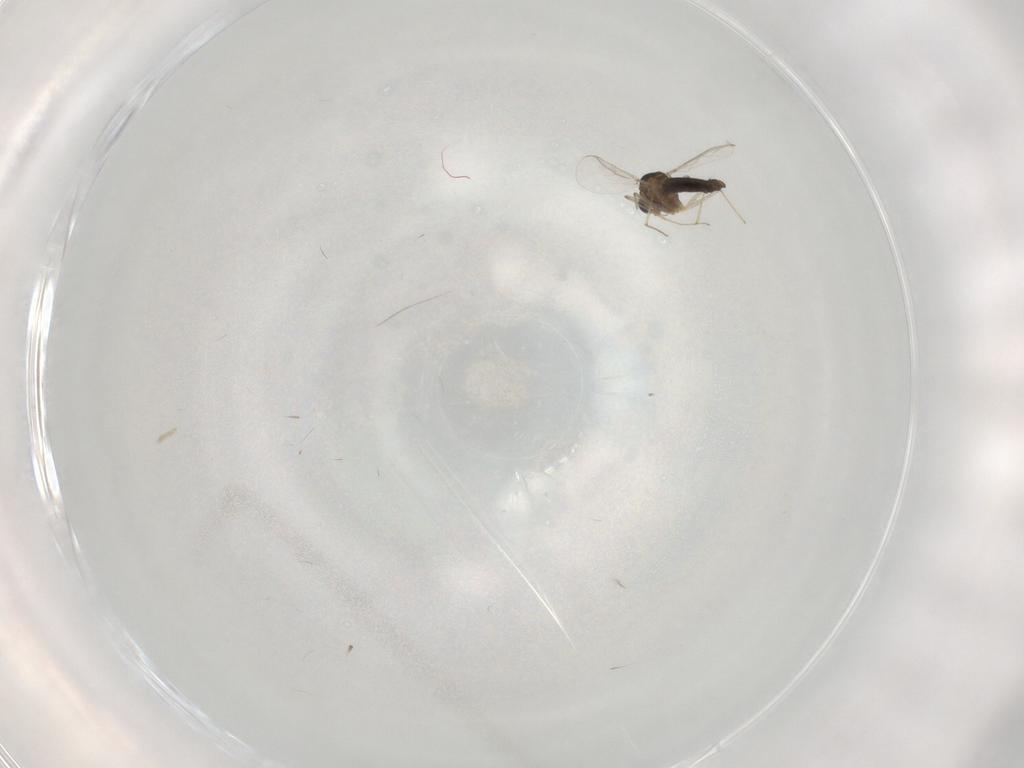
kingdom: Animalia
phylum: Arthropoda
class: Insecta
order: Diptera
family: Chironomidae
